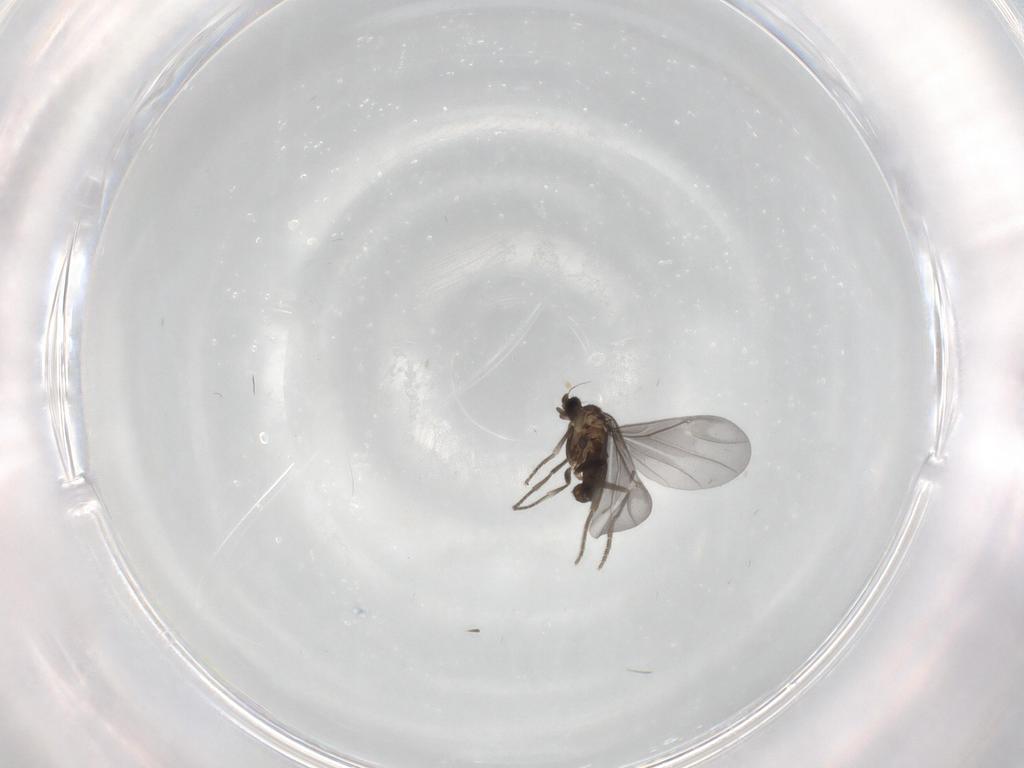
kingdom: Animalia
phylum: Arthropoda
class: Insecta
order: Diptera
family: Phoridae
